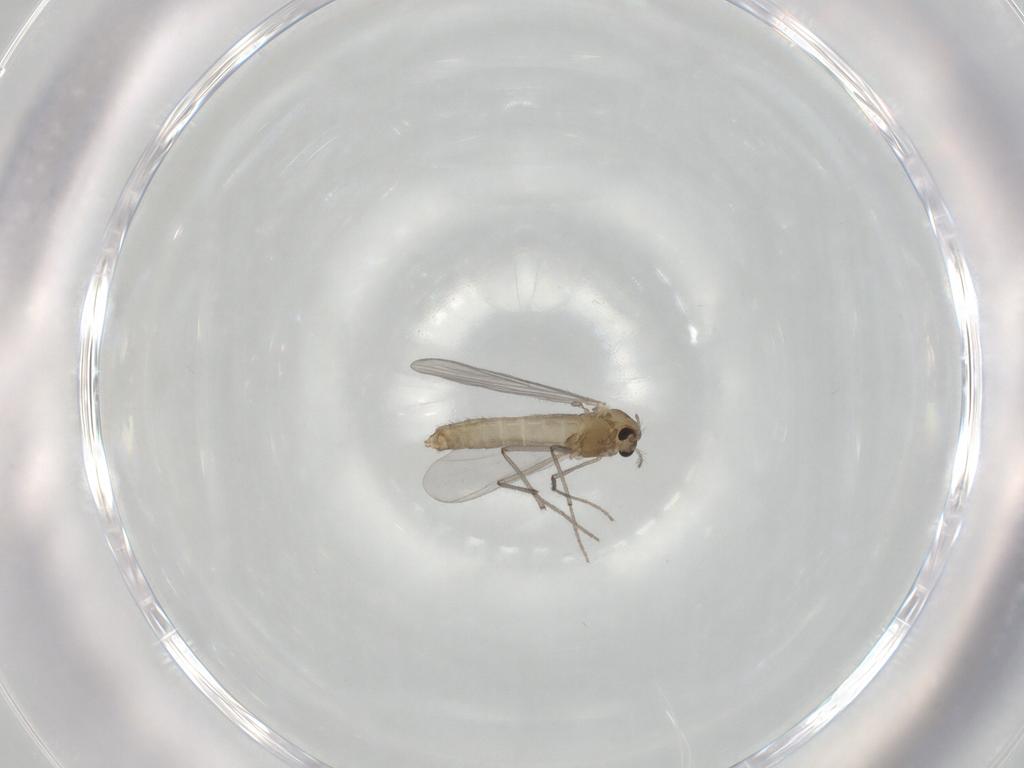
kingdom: Animalia
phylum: Arthropoda
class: Insecta
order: Diptera
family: Chironomidae
